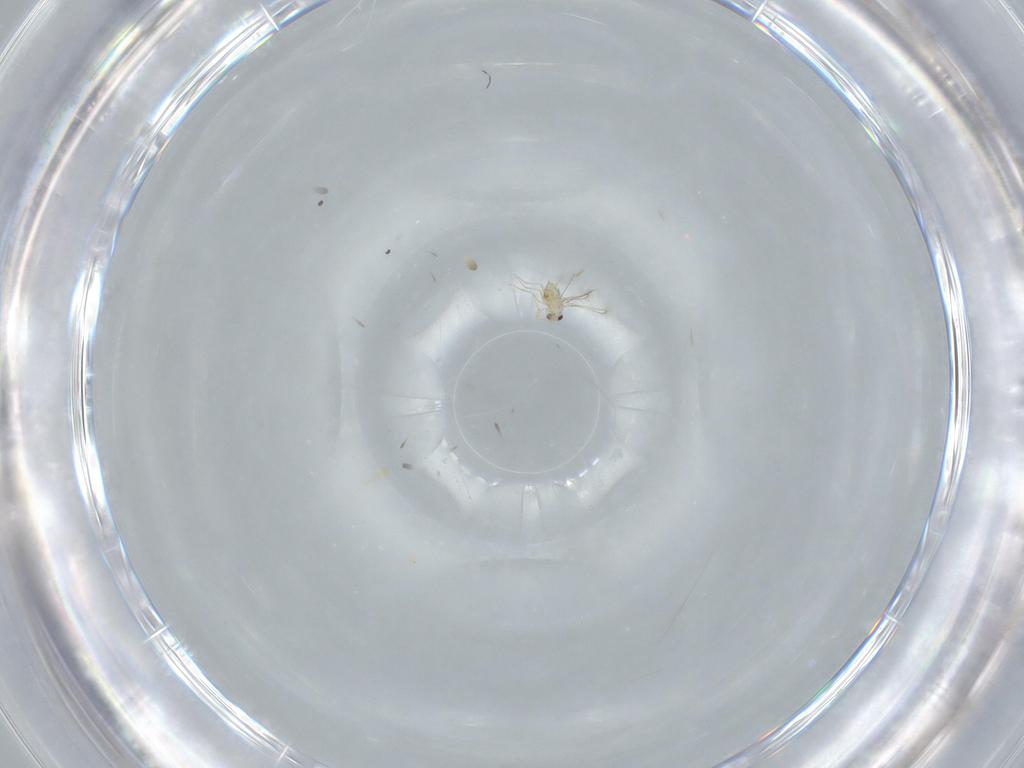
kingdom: Animalia
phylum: Arthropoda
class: Insecta
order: Hymenoptera
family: Mymaridae
